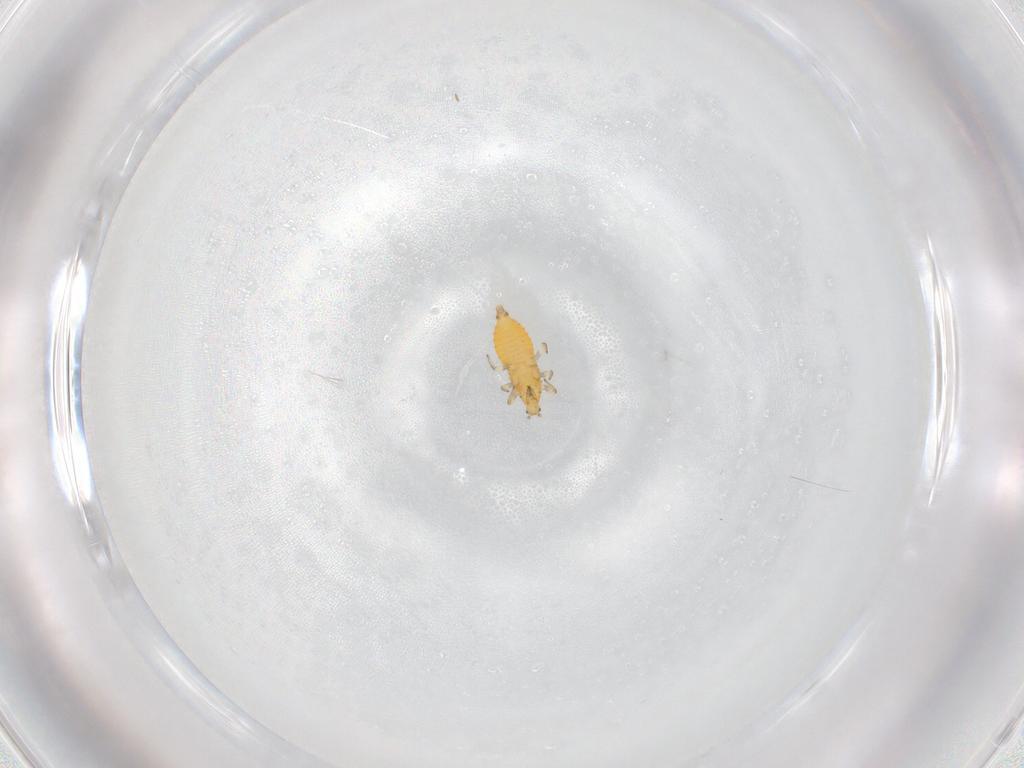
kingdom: Animalia
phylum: Arthropoda
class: Insecta
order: Thysanoptera
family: Thripidae
